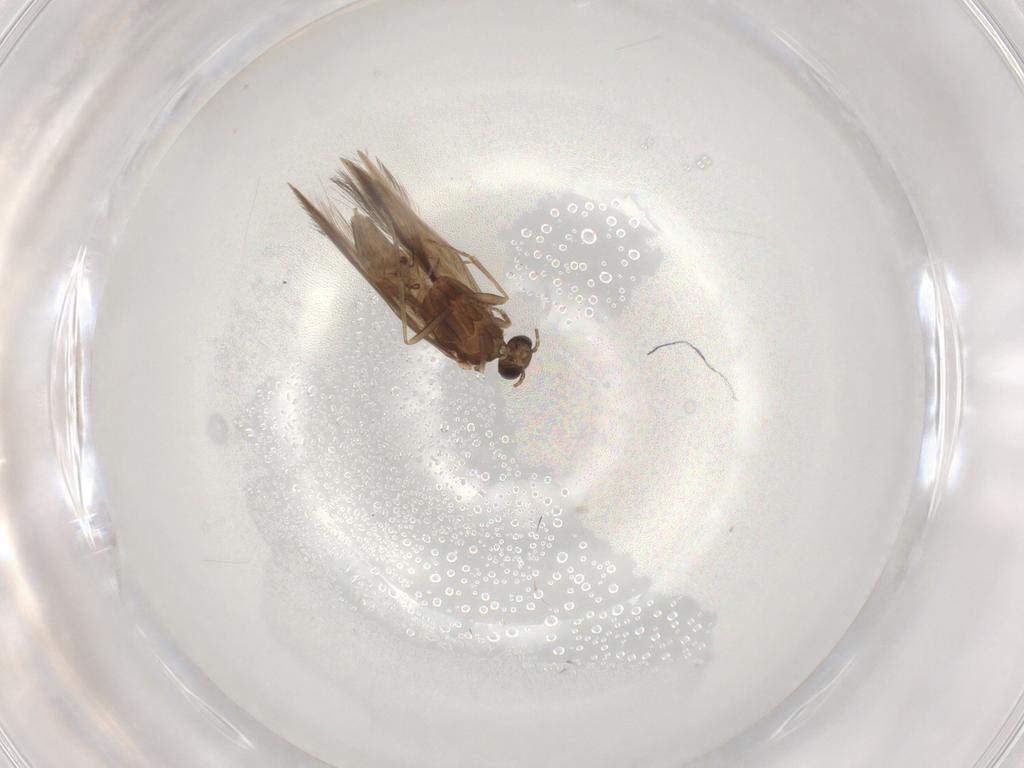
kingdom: Animalia
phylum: Arthropoda
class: Insecta
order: Trichoptera
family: Hydroptilidae
